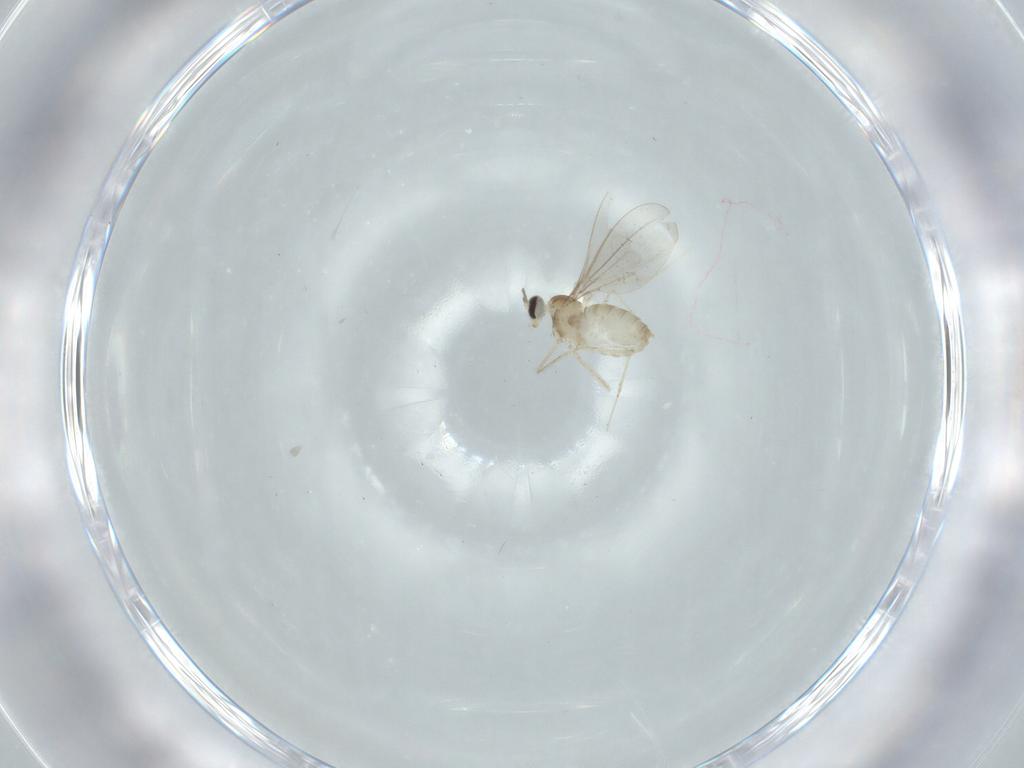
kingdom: Animalia
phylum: Arthropoda
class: Insecta
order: Diptera
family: Cecidomyiidae
